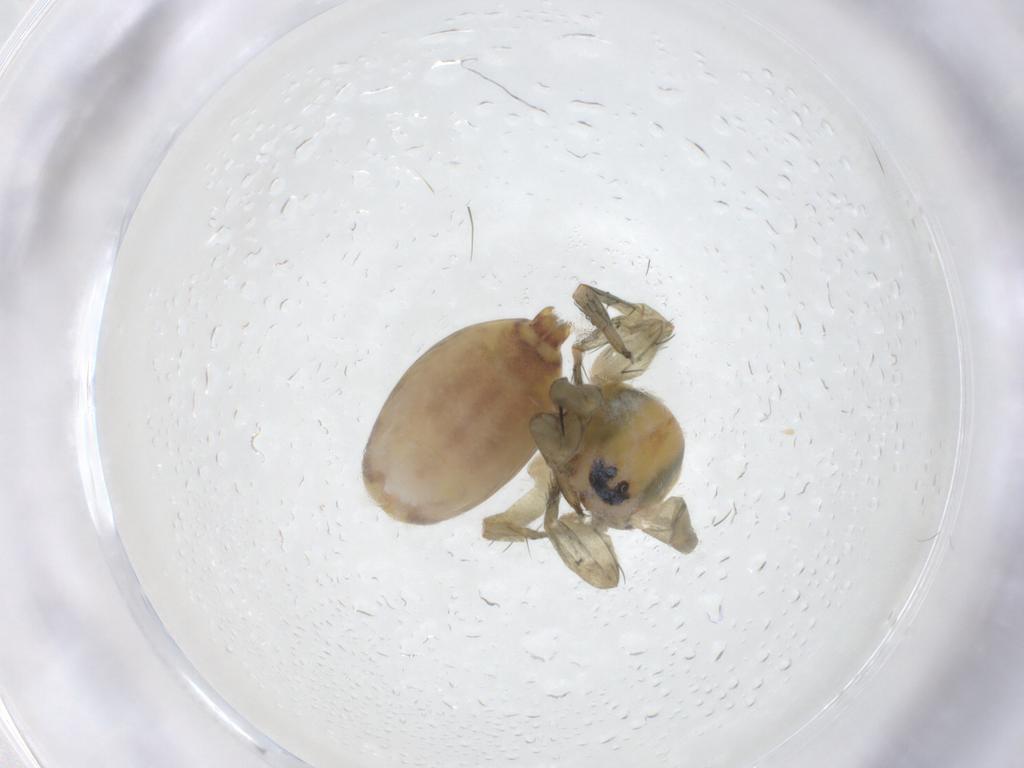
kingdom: Animalia
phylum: Arthropoda
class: Arachnida
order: Araneae
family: Anyphaenidae
